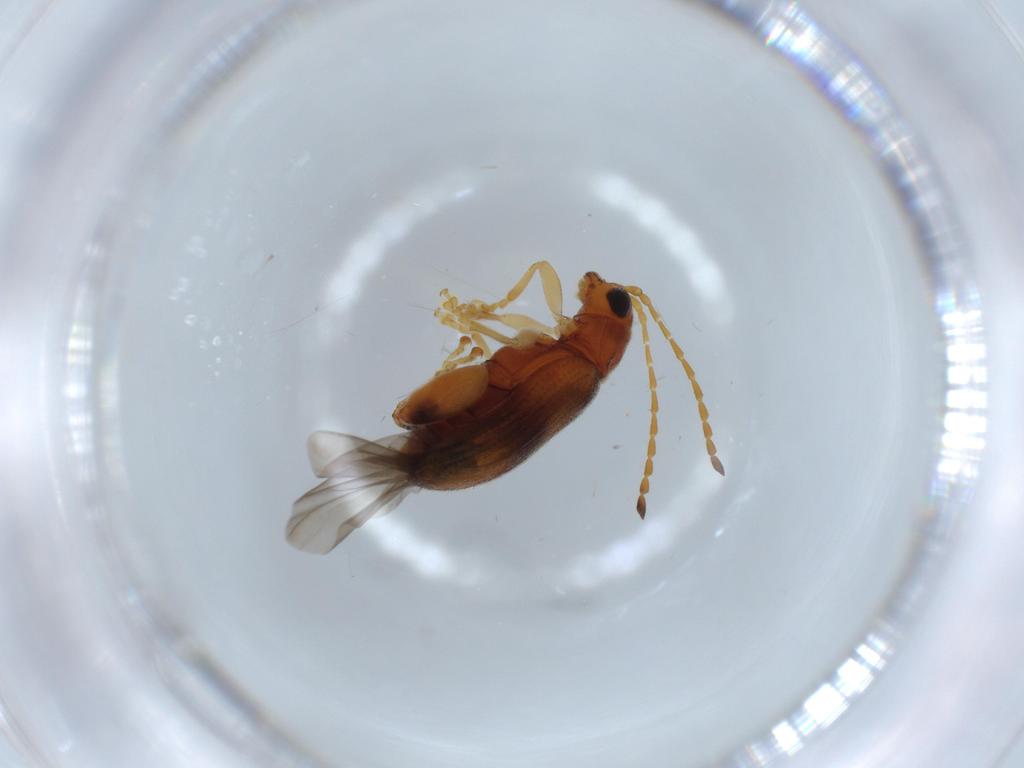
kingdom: Animalia
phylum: Arthropoda
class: Insecta
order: Coleoptera
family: Chrysomelidae
